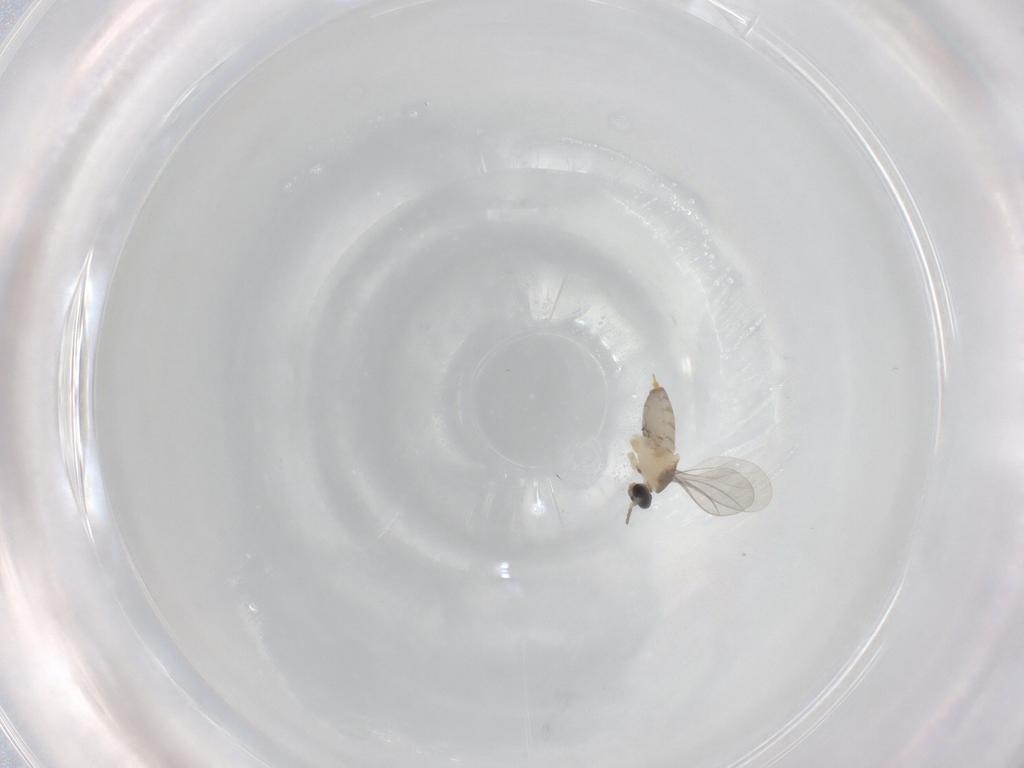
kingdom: Animalia
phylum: Arthropoda
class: Insecta
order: Diptera
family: Cecidomyiidae
